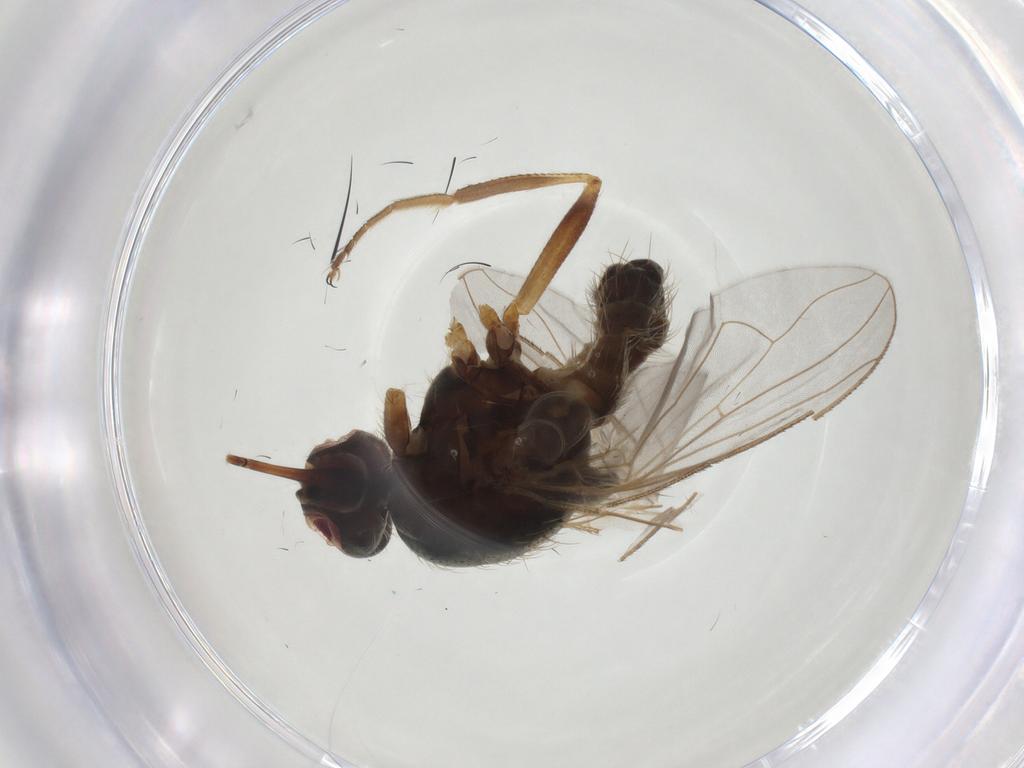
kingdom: Animalia
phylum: Arthropoda
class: Insecta
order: Diptera
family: Muscidae
